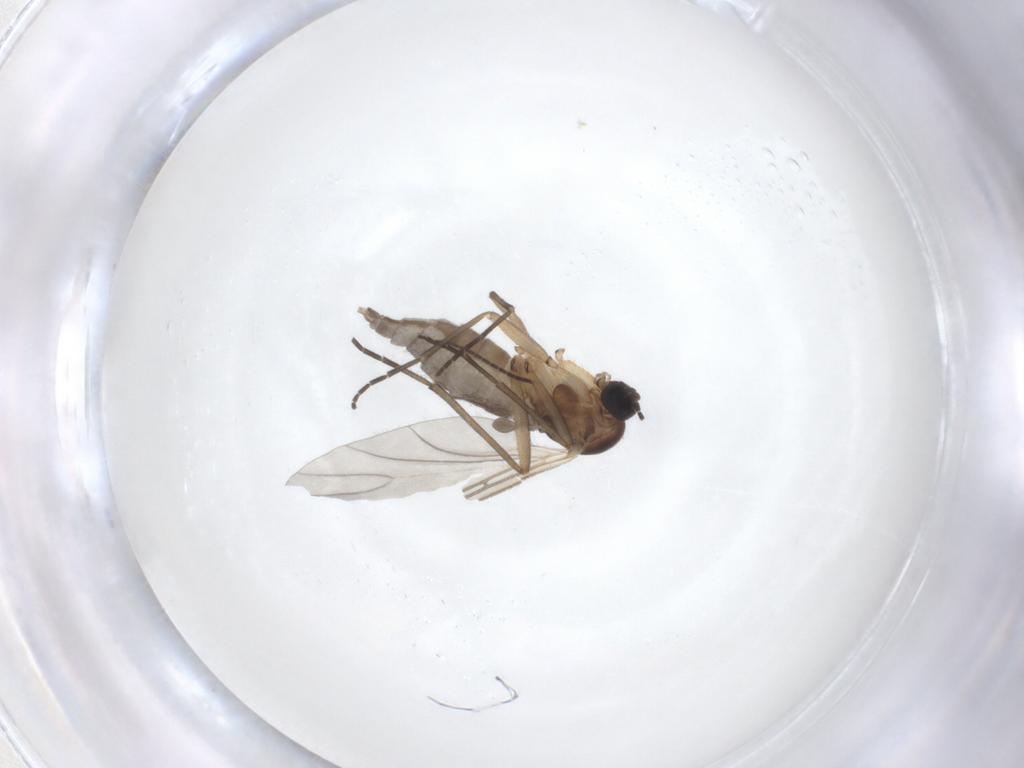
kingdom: Animalia
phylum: Arthropoda
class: Insecta
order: Diptera
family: Sciaridae
